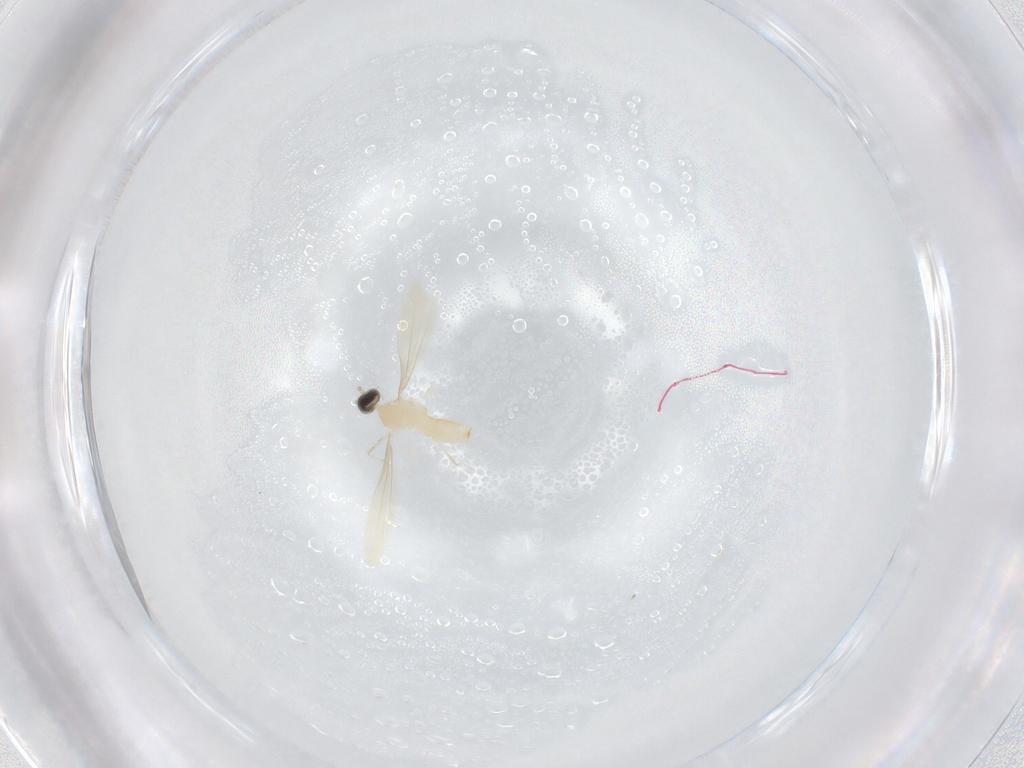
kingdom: Animalia
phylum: Arthropoda
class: Insecta
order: Diptera
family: Cecidomyiidae
